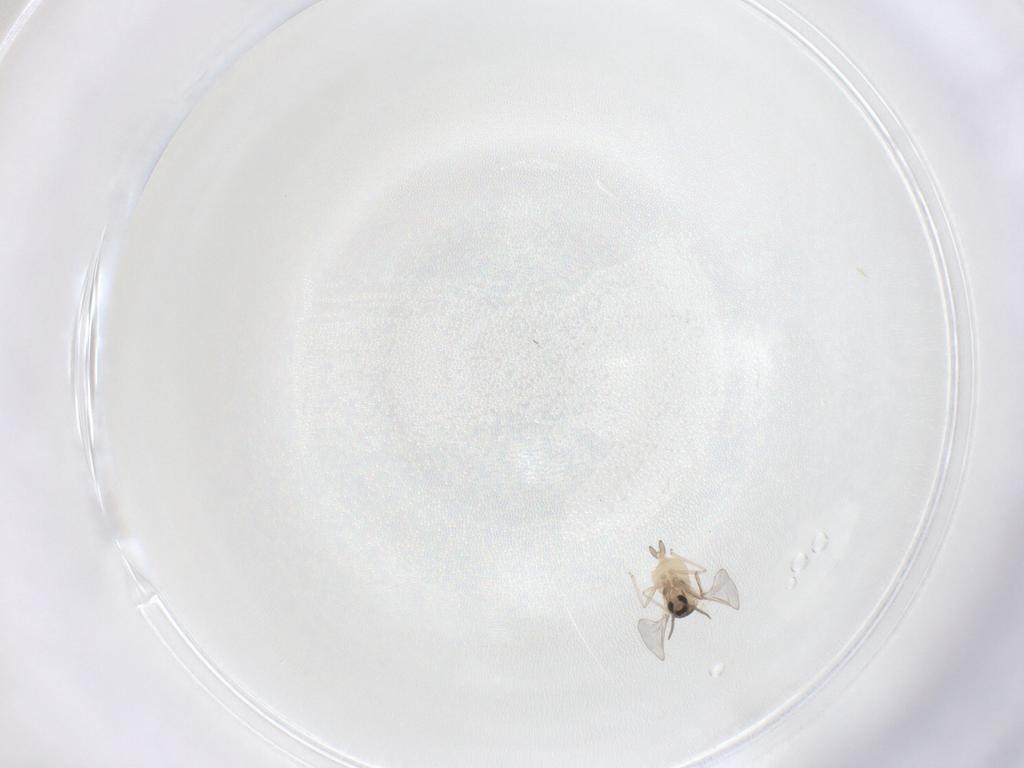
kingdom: Animalia
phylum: Arthropoda
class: Insecta
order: Diptera
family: Cecidomyiidae
